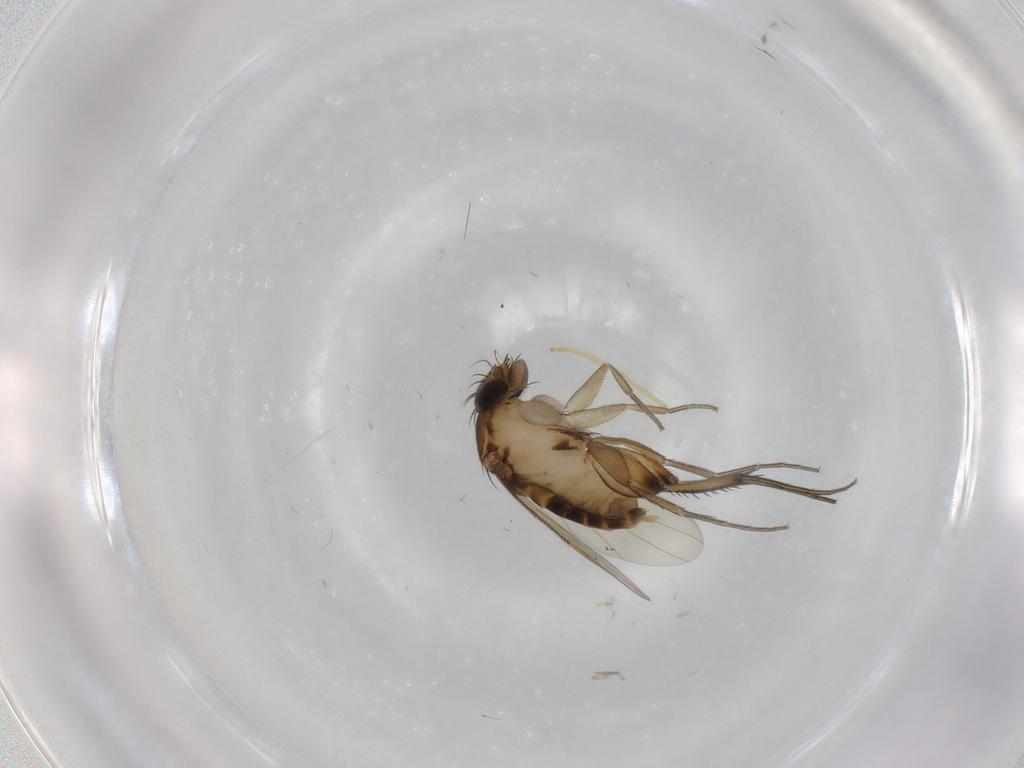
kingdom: Animalia
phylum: Arthropoda
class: Insecta
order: Diptera
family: Phoridae
